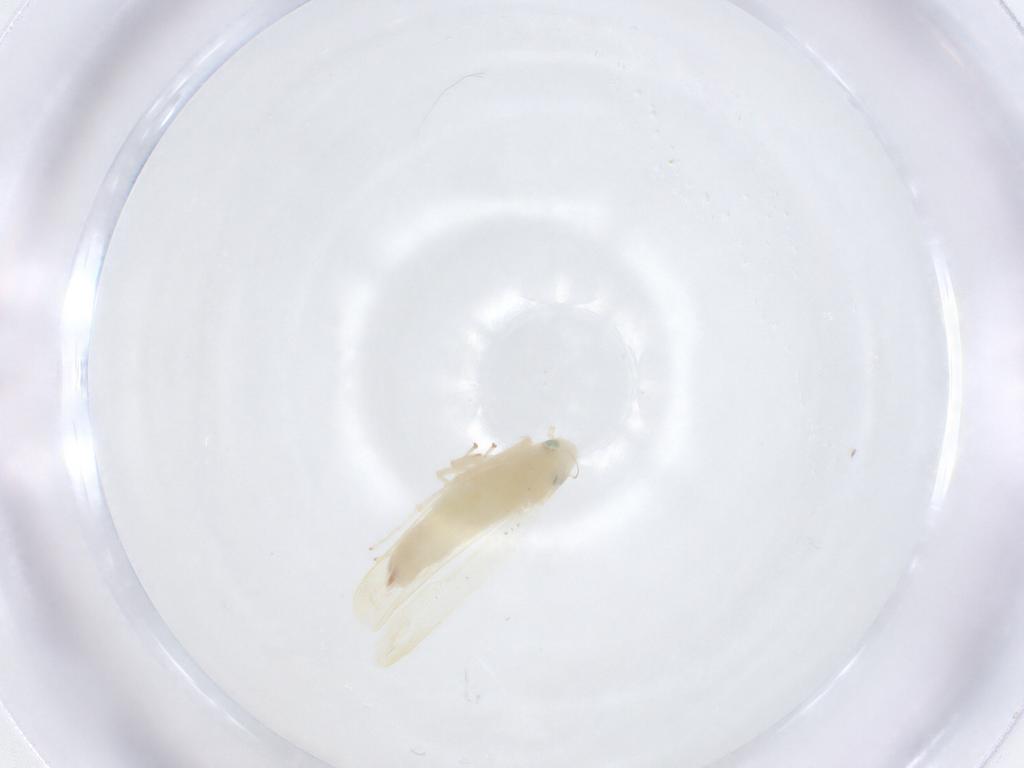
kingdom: Animalia
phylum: Arthropoda
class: Insecta
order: Hemiptera
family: Cicadellidae
